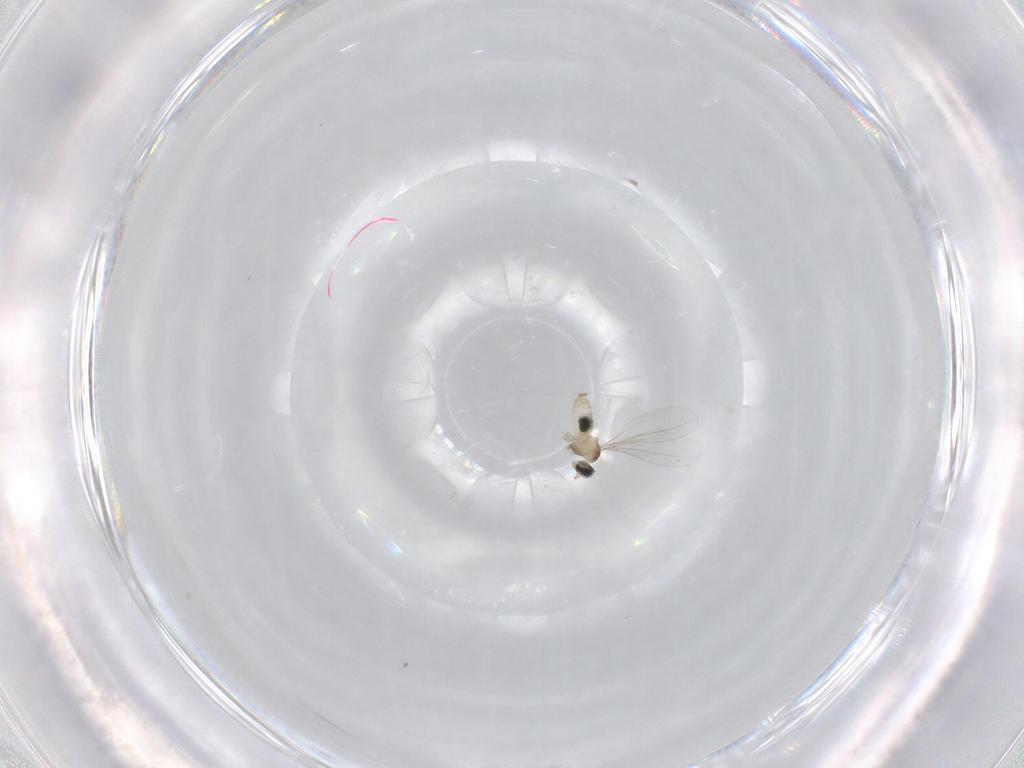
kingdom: Animalia
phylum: Arthropoda
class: Insecta
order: Diptera
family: Cecidomyiidae
